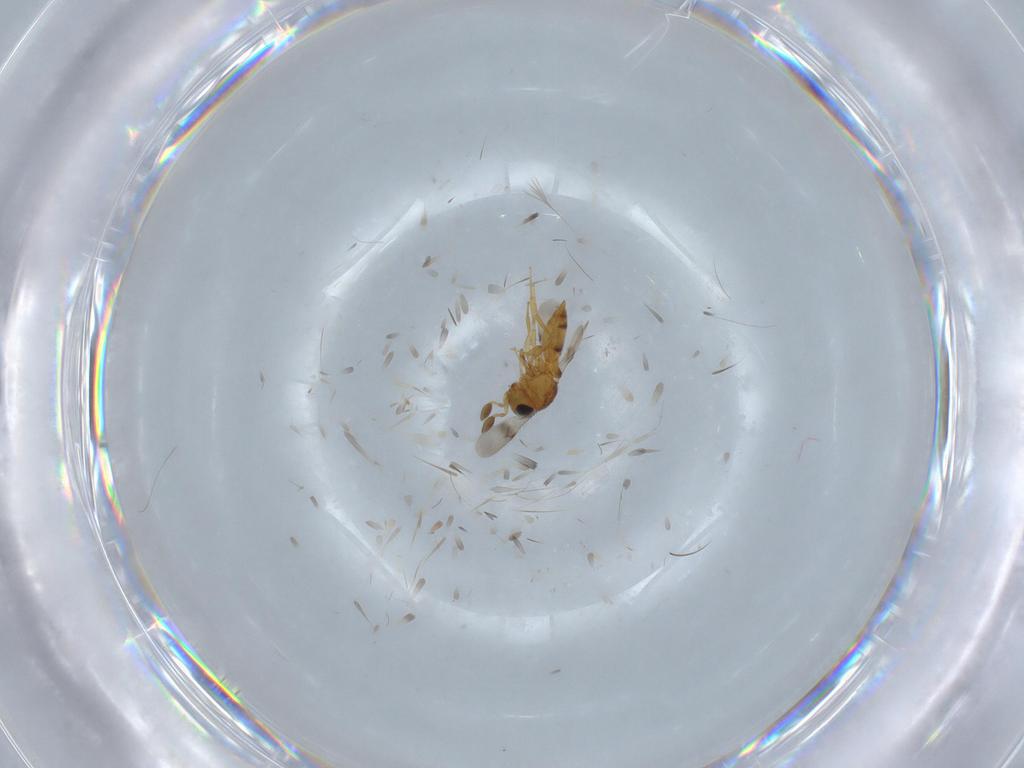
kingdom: Animalia
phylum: Arthropoda
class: Insecta
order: Hymenoptera
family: Scelionidae
